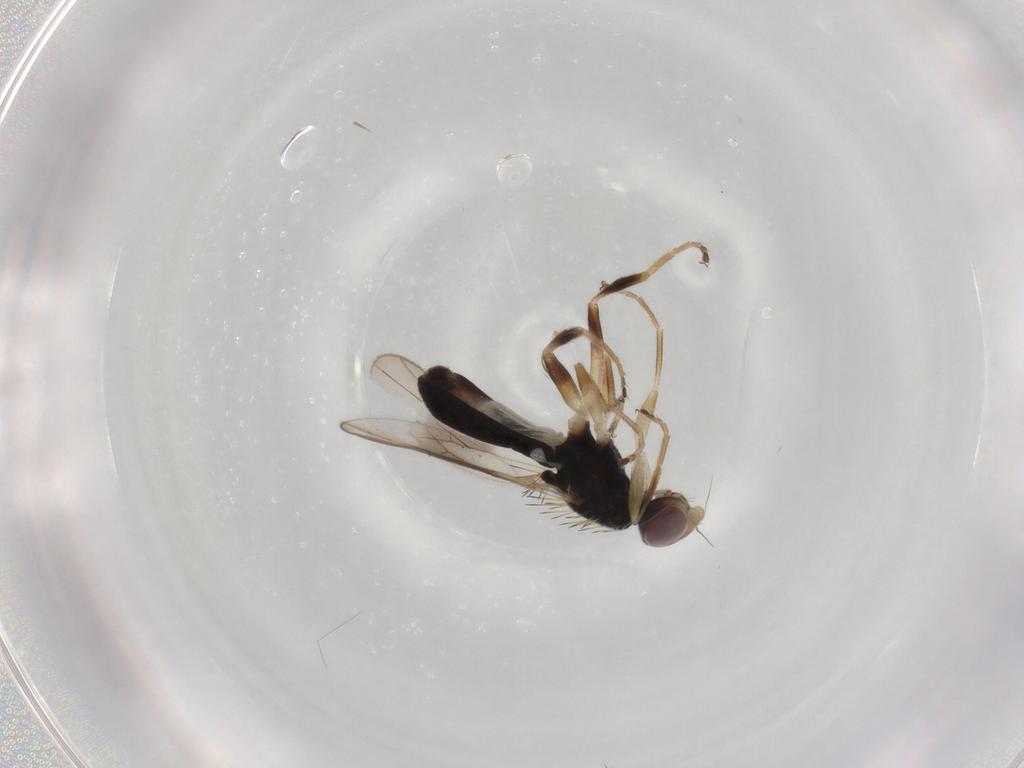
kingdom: Animalia
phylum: Arthropoda
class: Insecta
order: Diptera
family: Chloropidae
